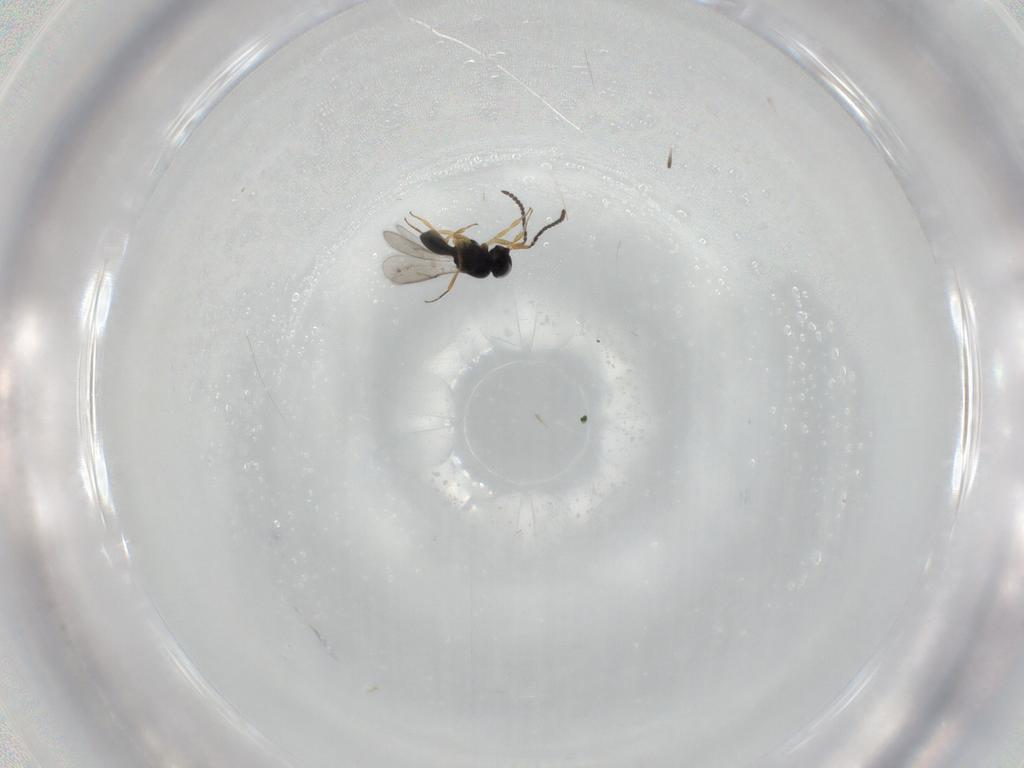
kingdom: Animalia
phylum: Arthropoda
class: Insecta
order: Hymenoptera
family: Scelionidae
